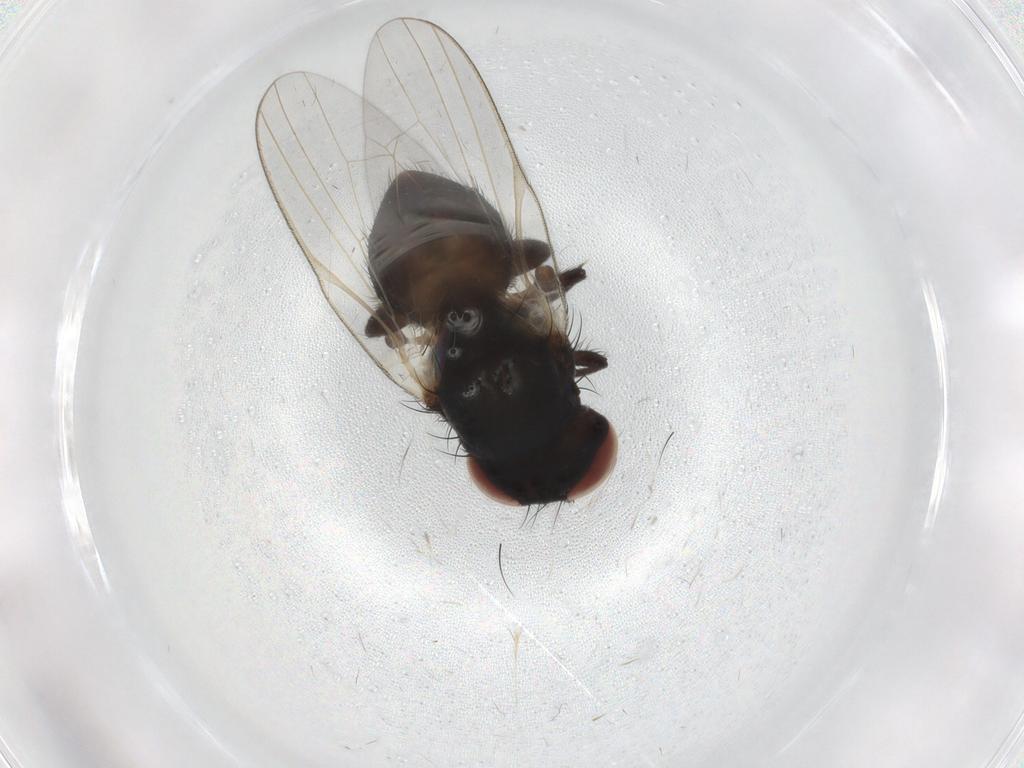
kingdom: Animalia
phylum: Arthropoda
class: Insecta
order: Diptera
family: Lonchaeidae
